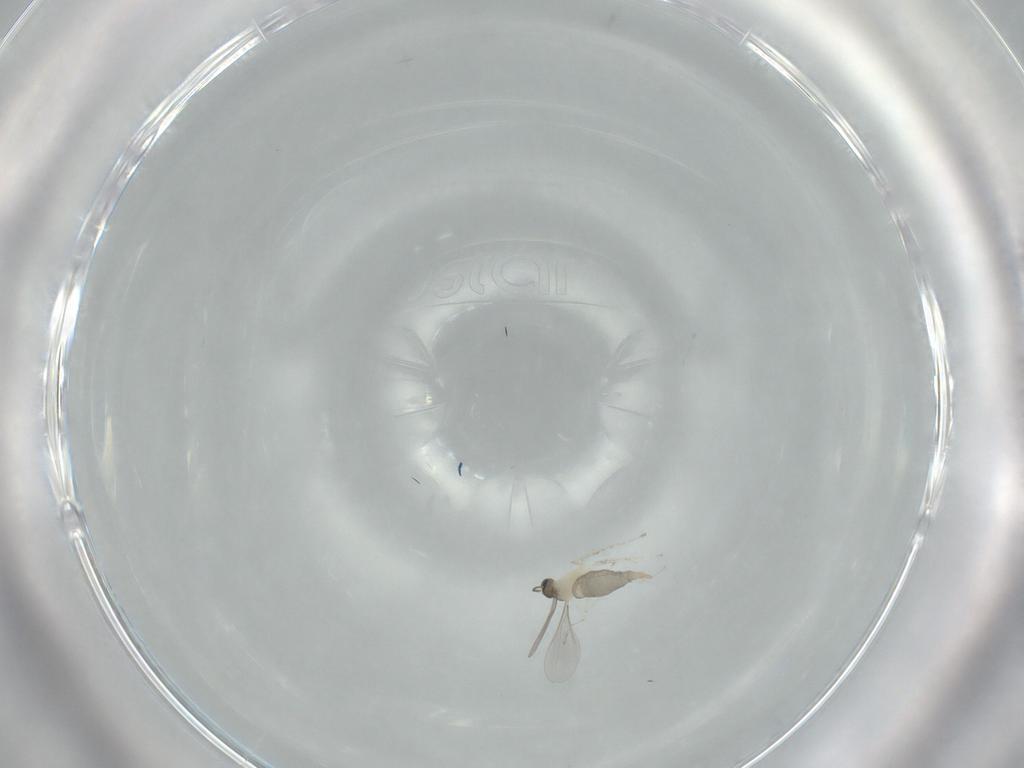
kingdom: Animalia
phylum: Arthropoda
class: Insecta
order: Diptera
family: Cecidomyiidae
